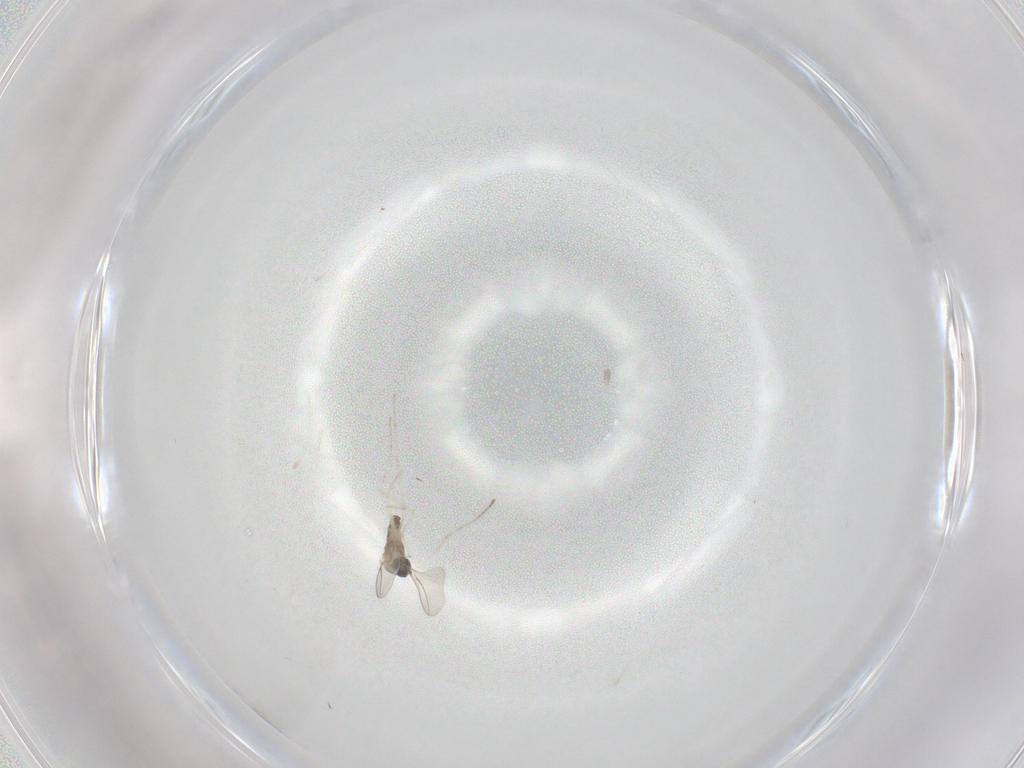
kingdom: Animalia
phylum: Arthropoda
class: Insecta
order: Diptera
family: Cecidomyiidae
